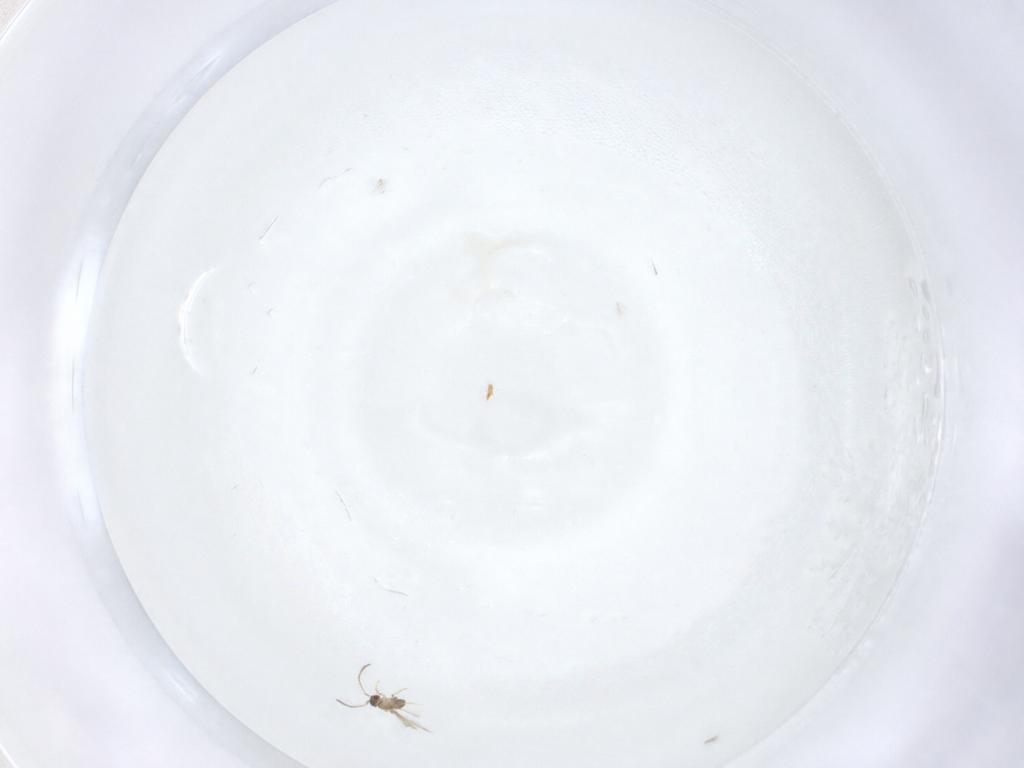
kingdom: Animalia
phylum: Arthropoda
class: Insecta
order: Hymenoptera
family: Mymaridae
